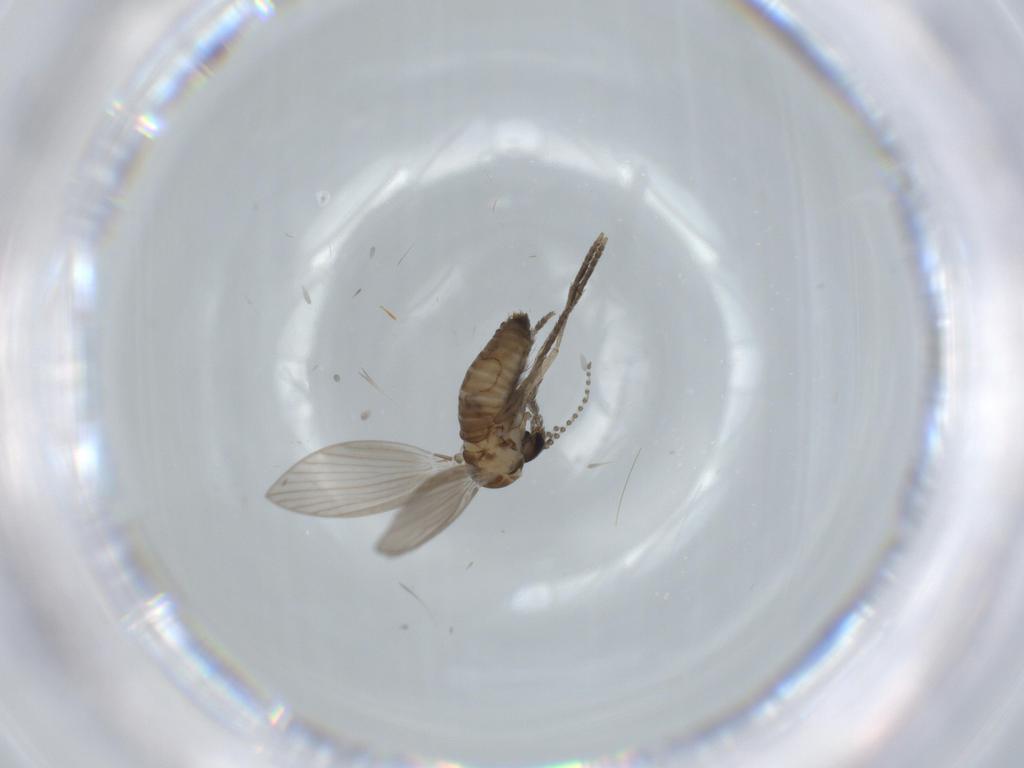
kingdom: Animalia
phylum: Arthropoda
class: Insecta
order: Diptera
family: Psychodidae
